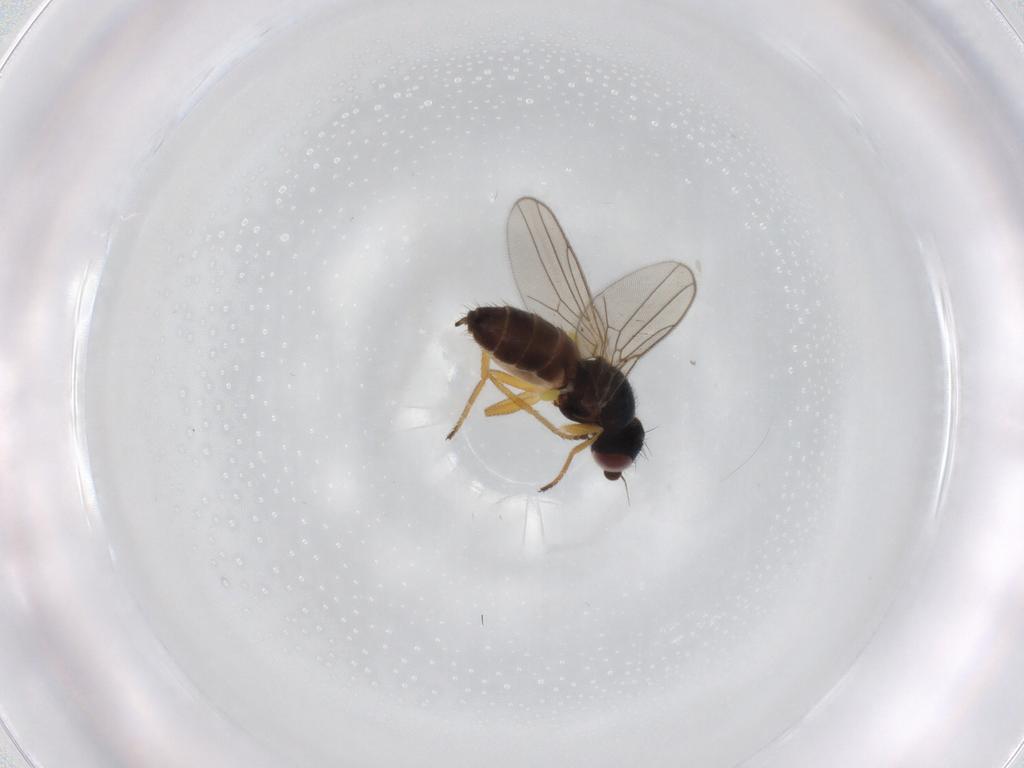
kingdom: Animalia
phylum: Arthropoda
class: Insecta
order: Diptera
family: Chloropidae
